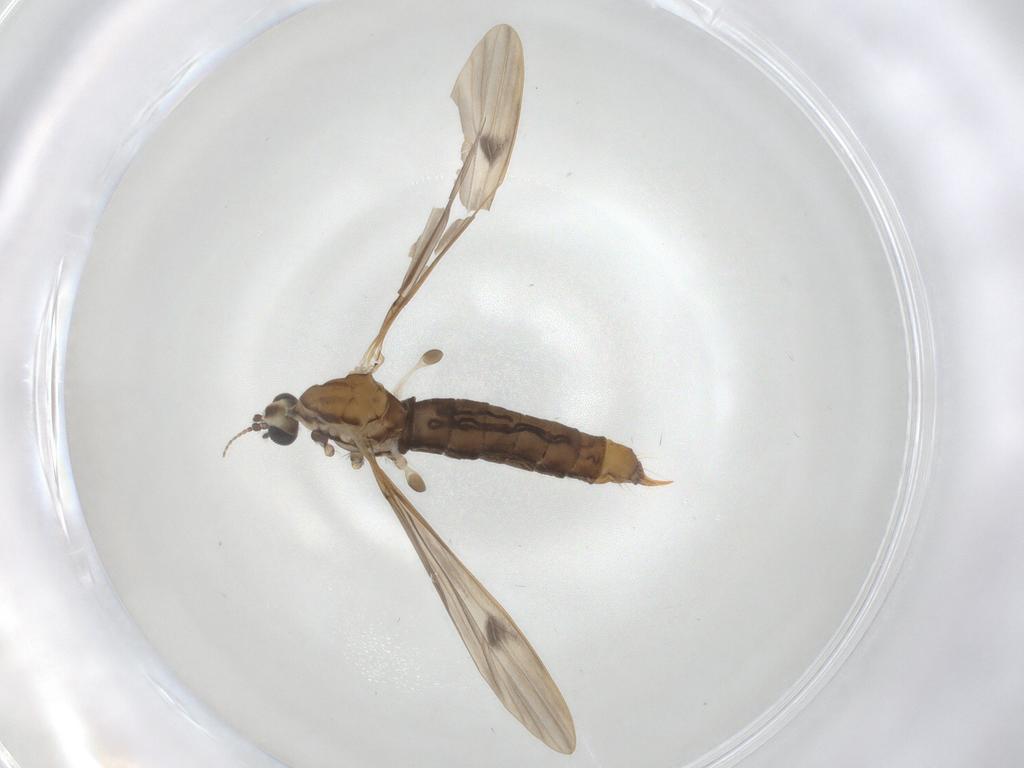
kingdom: Animalia
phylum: Arthropoda
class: Insecta
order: Diptera
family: Limoniidae
